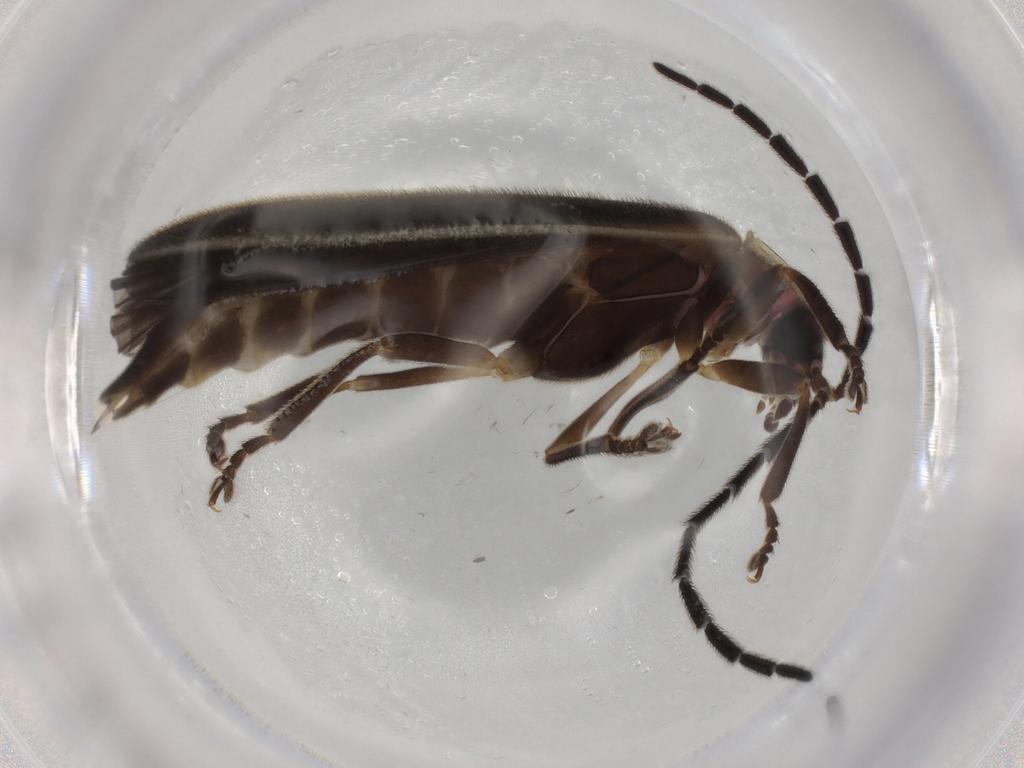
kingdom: Animalia
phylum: Arthropoda
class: Insecta
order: Coleoptera
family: Lampyridae
